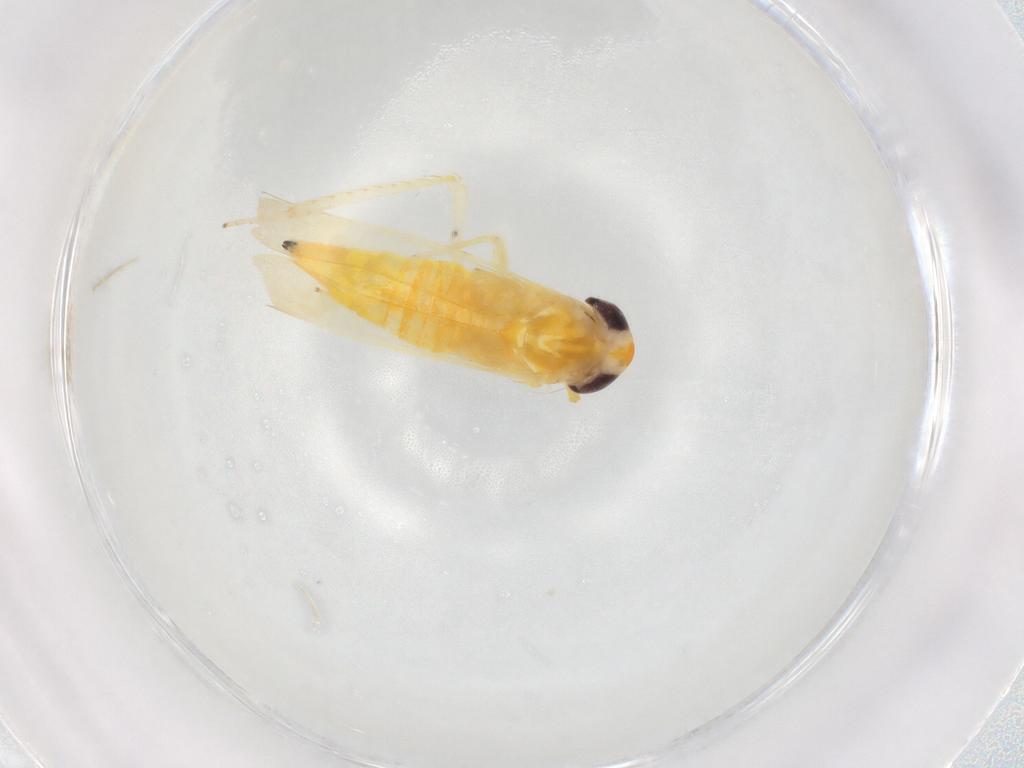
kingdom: Animalia
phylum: Arthropoda
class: Insecta
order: Hemiptera
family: Cicadellidae
